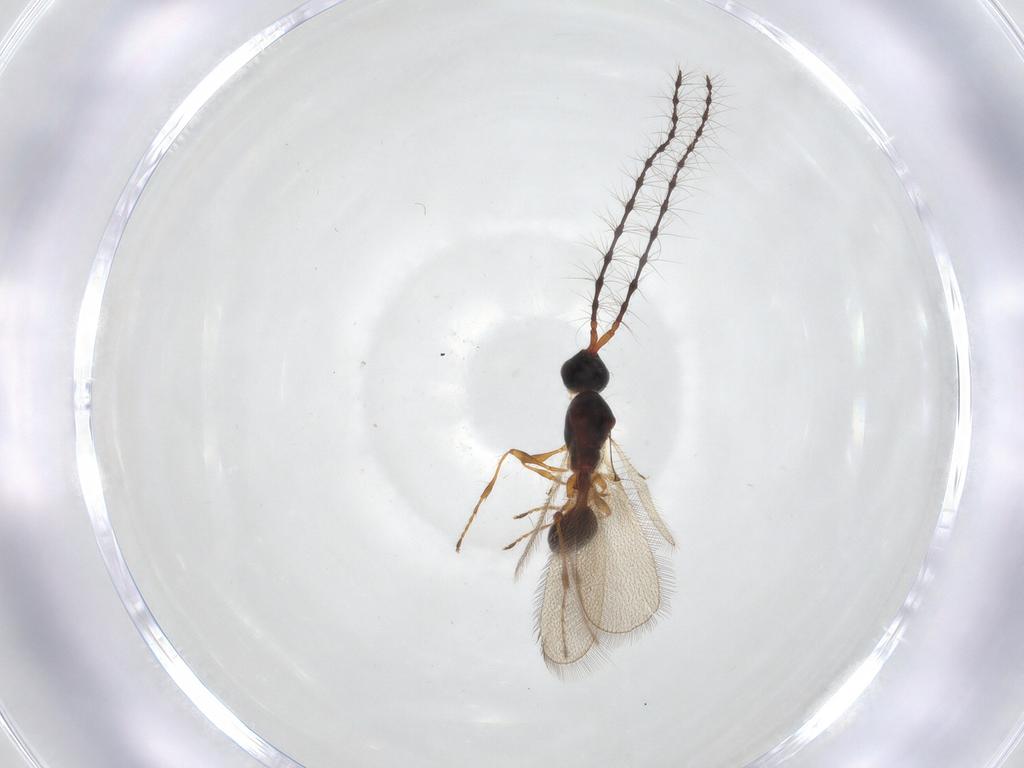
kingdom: Animalia
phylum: Arthropoda
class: Insecta
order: Hymenoptera
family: Diapriidae
